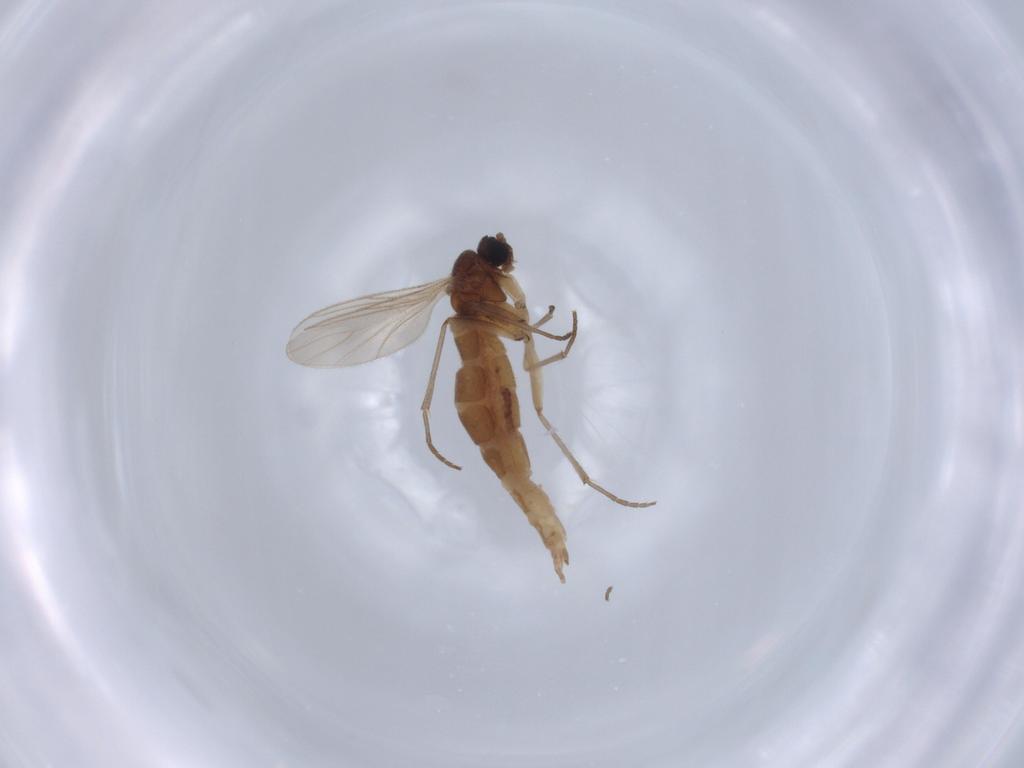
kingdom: Animalia
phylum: Arthropoda
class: Insecta
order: Diptera
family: Sciaridae
